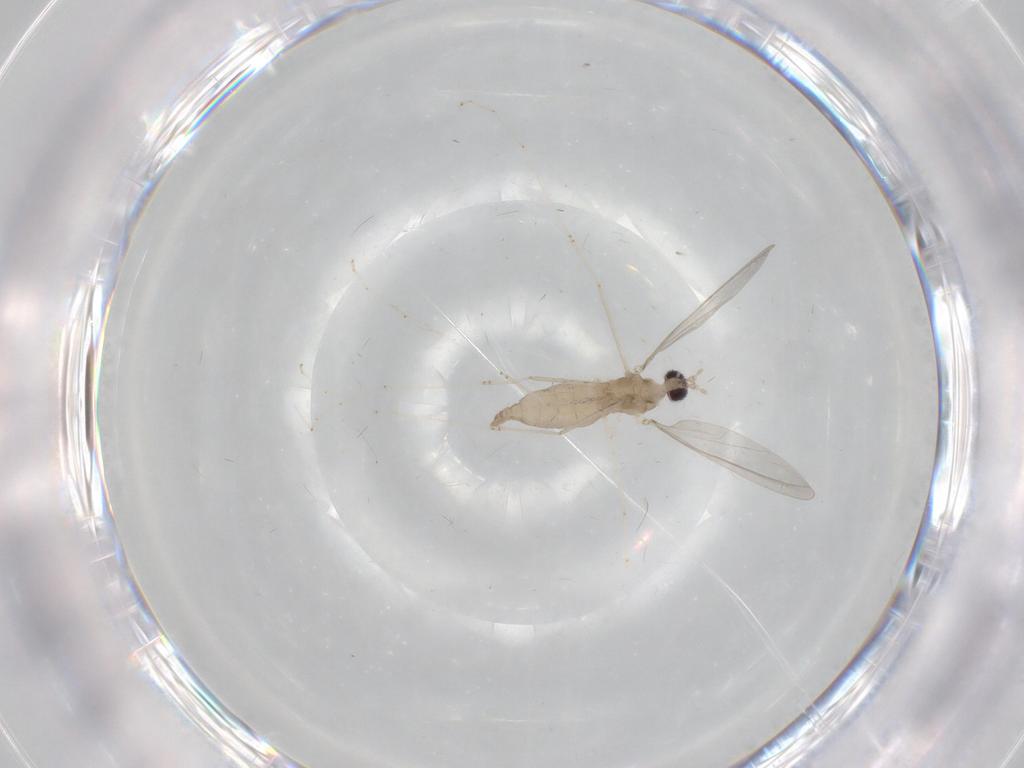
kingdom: Animalia
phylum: Arthropoda
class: Insecta
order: Diptera
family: Cecidomyiidae
